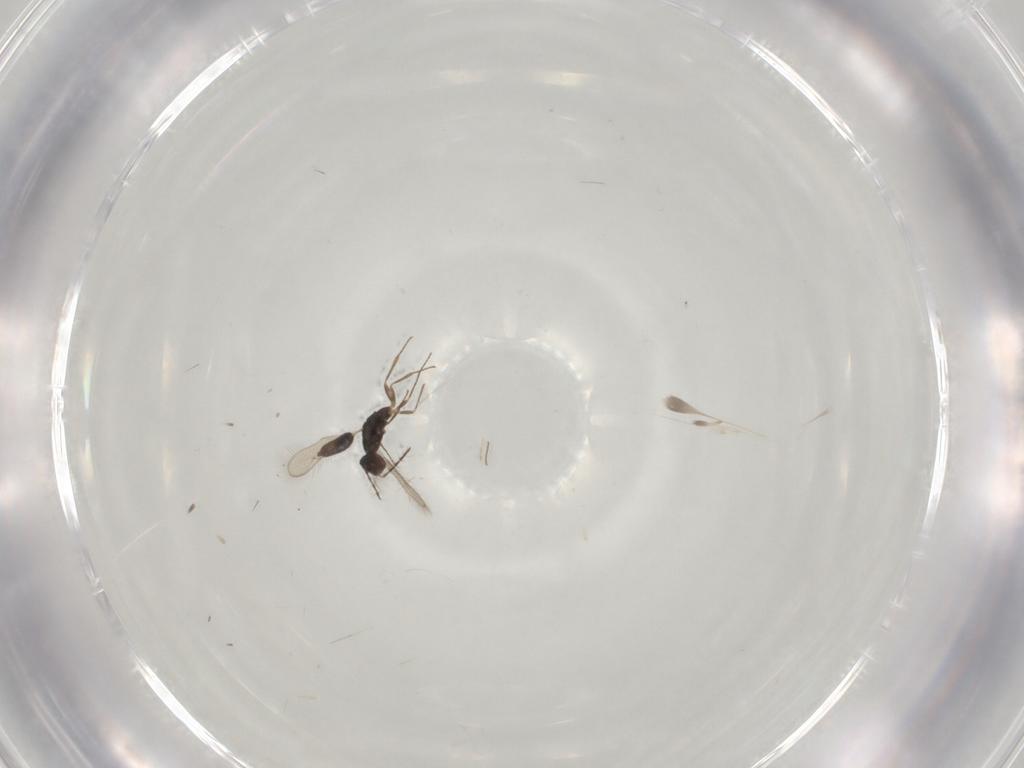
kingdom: Animalia
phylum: Arthropoda
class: Insecta
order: Hymenoptera
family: Pteromalidae
